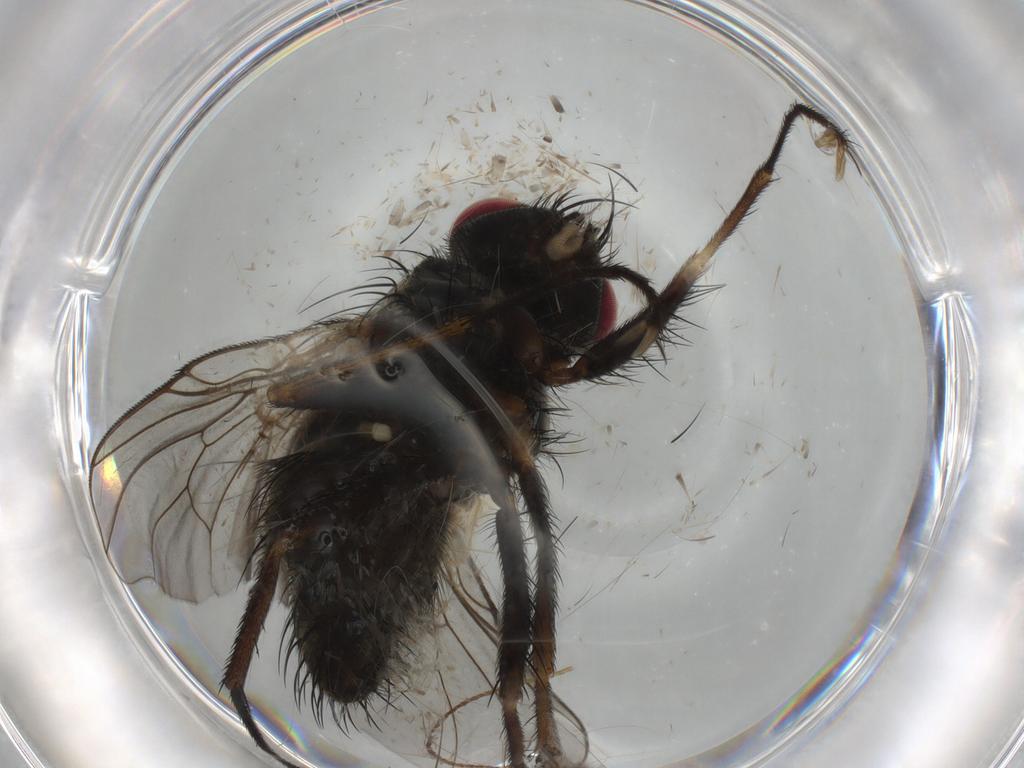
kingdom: Animalia
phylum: Arthropoda
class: Insecta
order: Diptera
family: Muscidae
